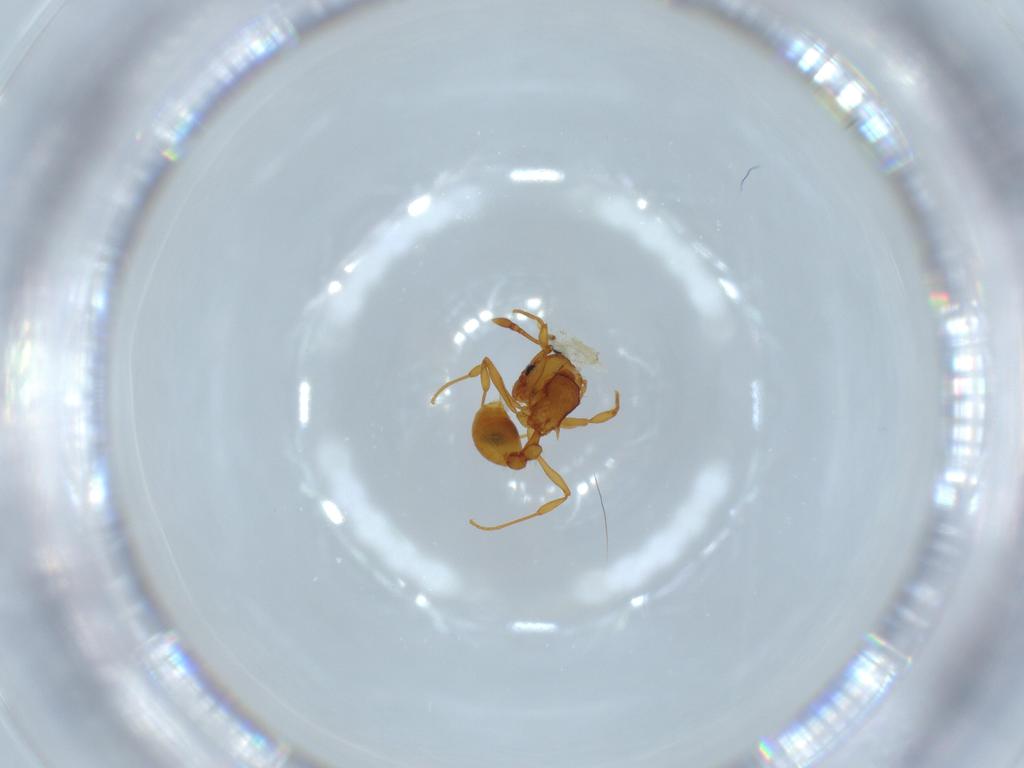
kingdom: Animalia
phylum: Arthropoda
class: Insecta
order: Hymenoptera
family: Formicidae
